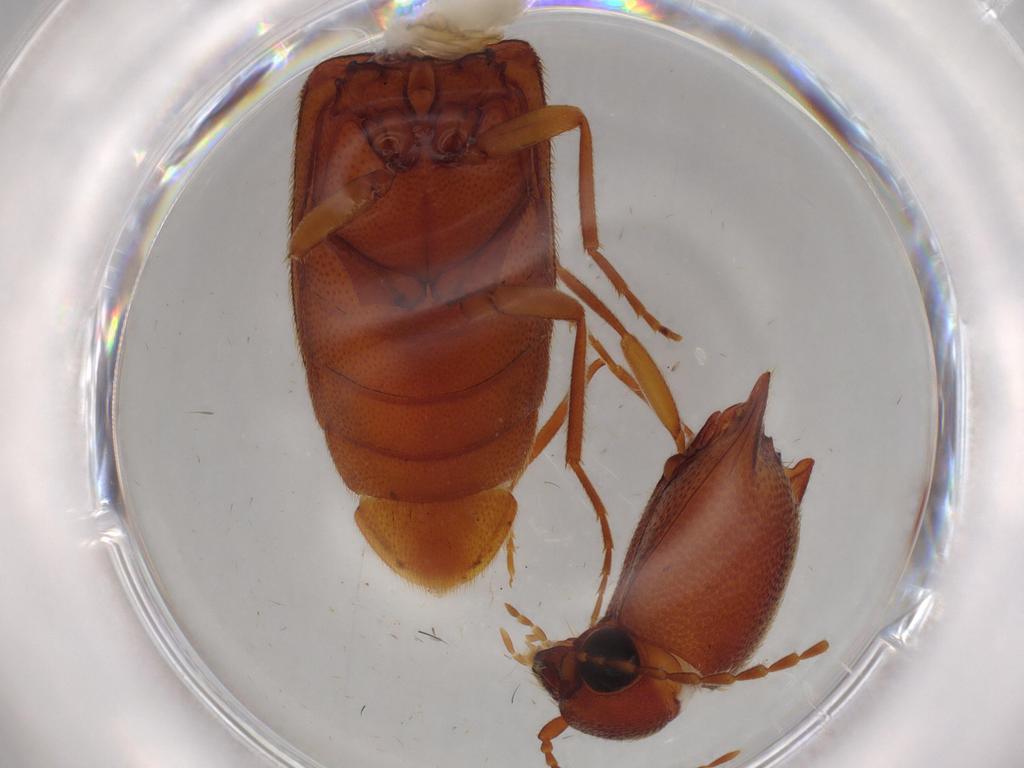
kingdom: Animalia
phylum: Arthropoda
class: Insecta
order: Coleoptera
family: Elateridae
